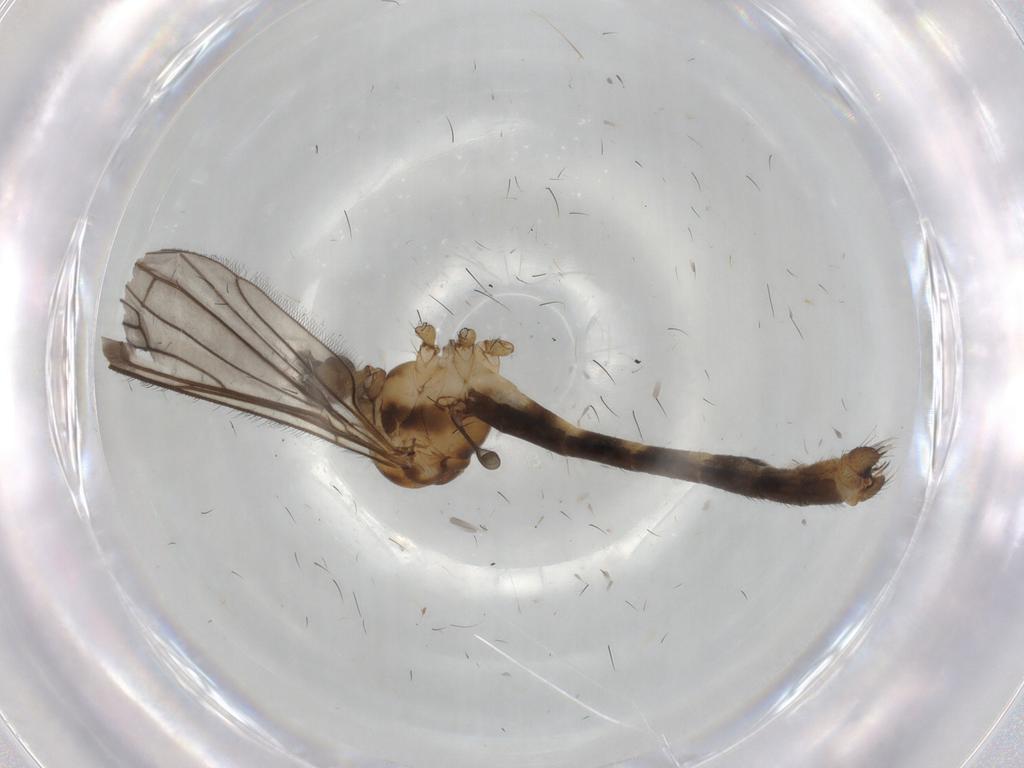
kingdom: Animalia
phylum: Arthropoda
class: Insecta
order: Diptera
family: Limoniidae
